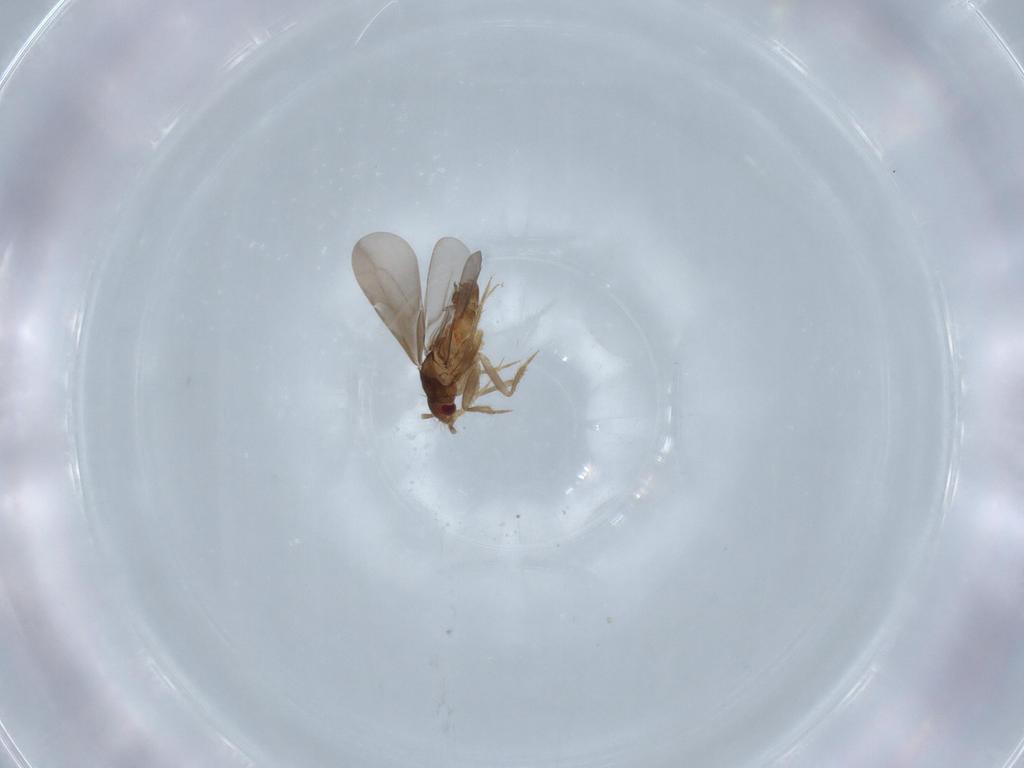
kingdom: Animalia
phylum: Arthropoda
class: Insecta
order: Hemiptera
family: Ceratocombidae
